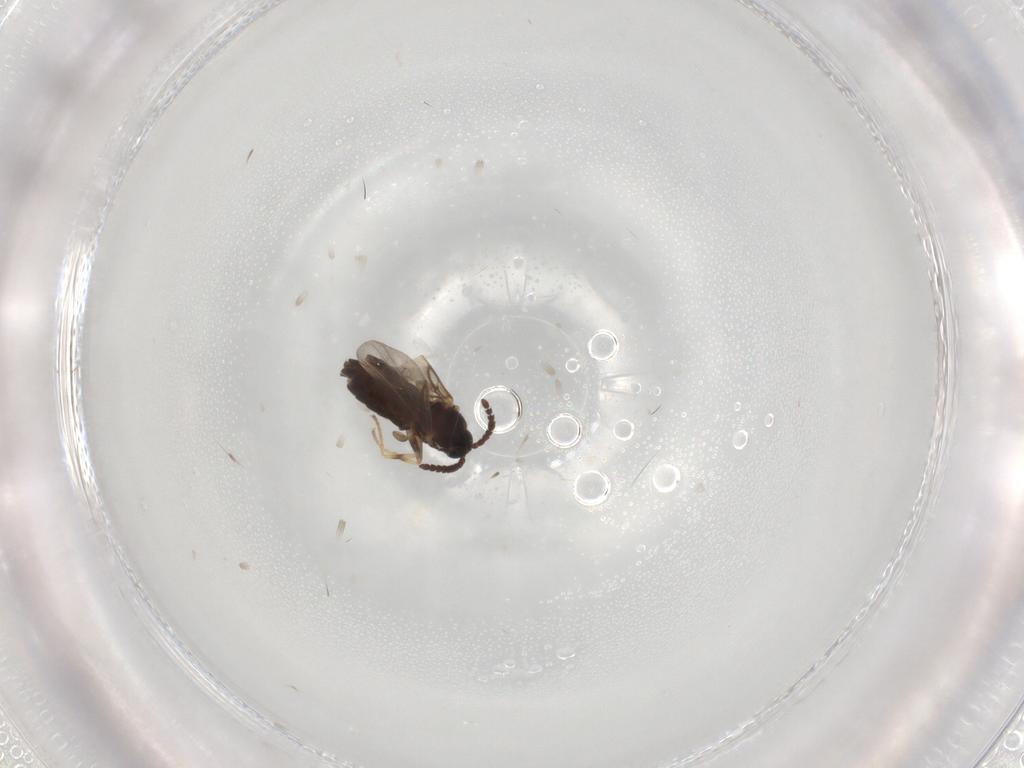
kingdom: Animalia
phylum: Arthropoda
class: Insecta
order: Diptera
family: Scatopsidae
